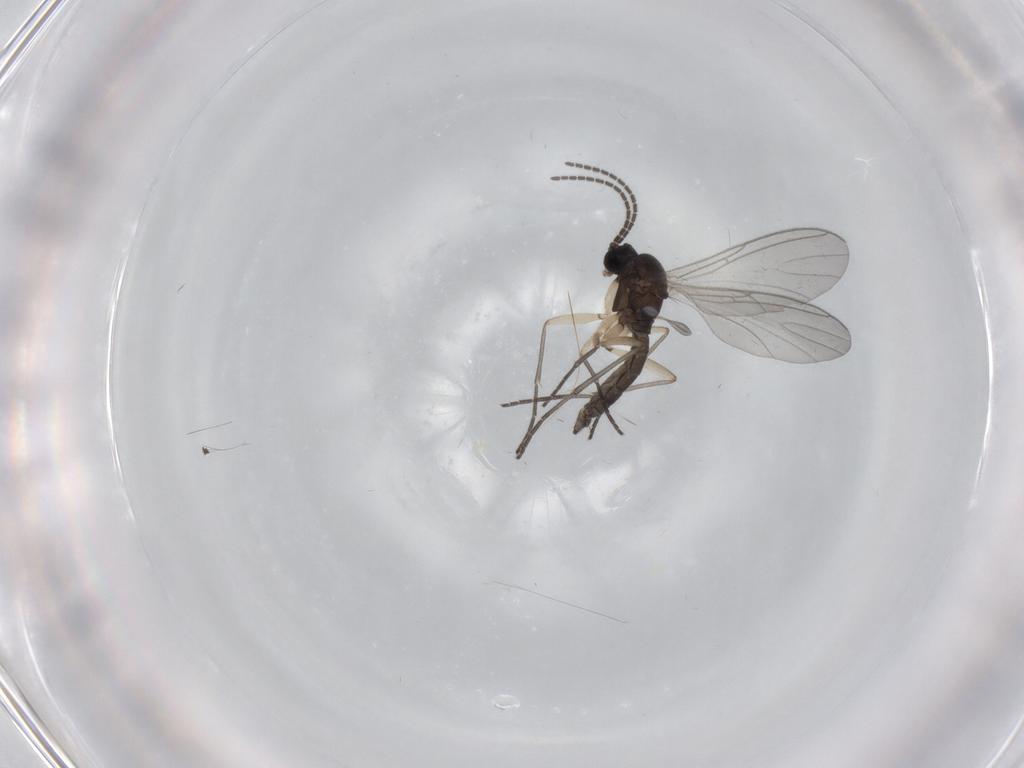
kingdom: Animalia
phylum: Arthropoda
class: Insecta
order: Diptera
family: Sciaridae
